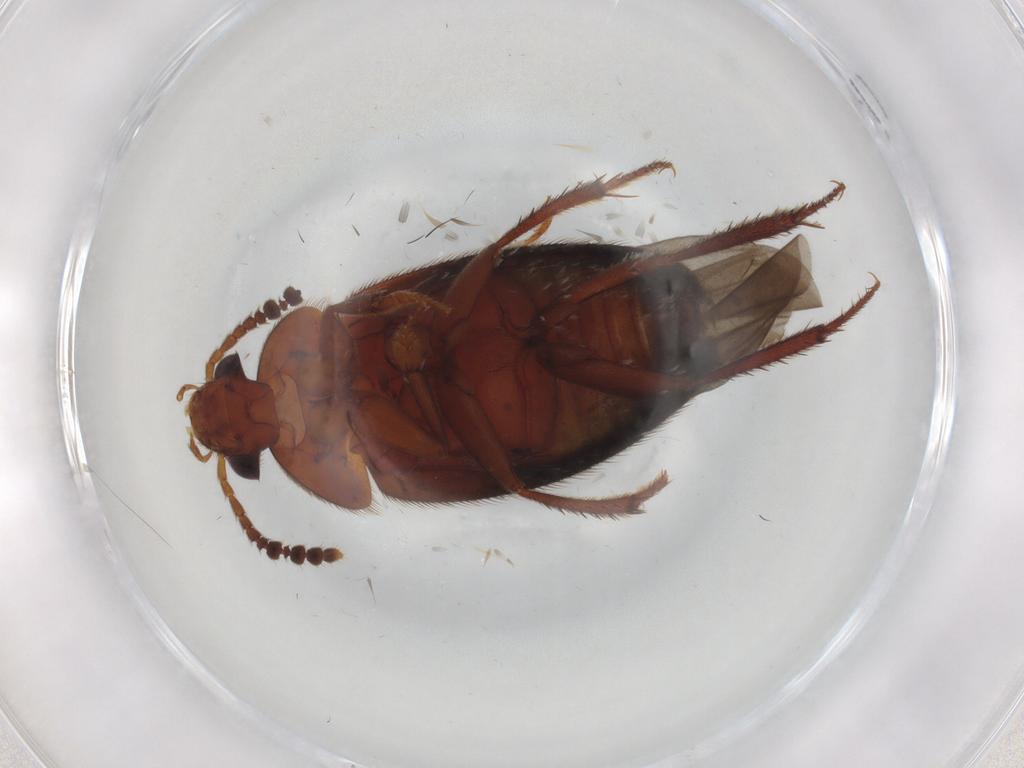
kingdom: Animalia
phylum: Arthropoda
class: Insecta
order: Coleoptera
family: Leiodidae
